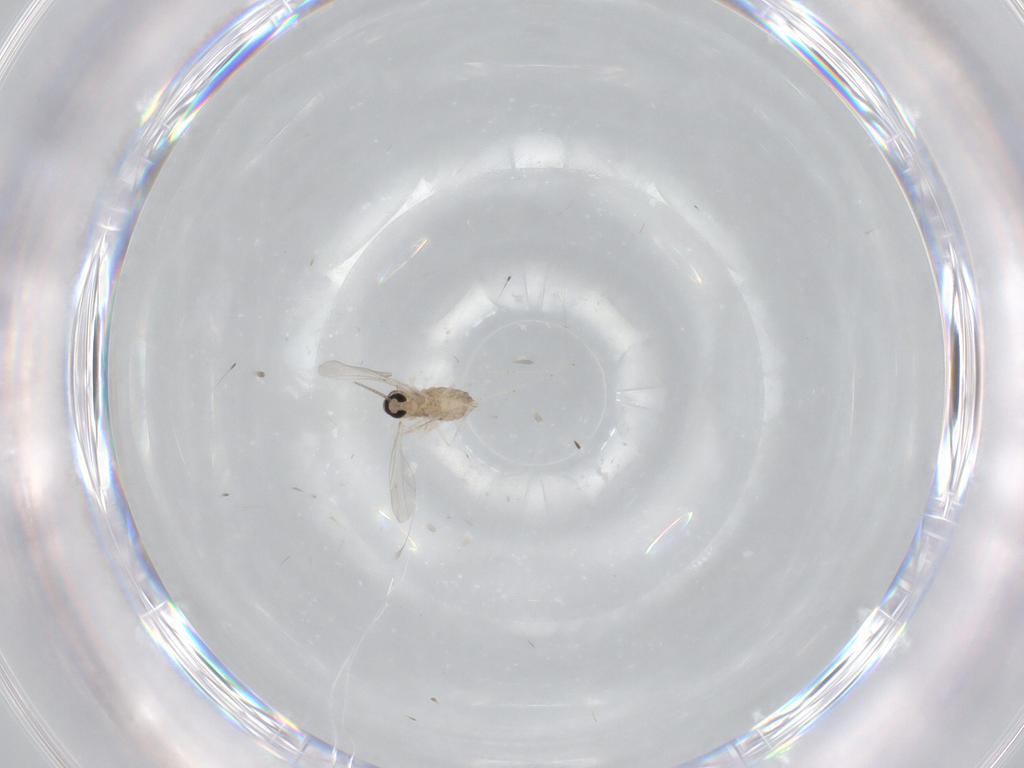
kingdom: Animalia
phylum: Arthropoda
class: Insecta
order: Diptera
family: Cecidomyiidae
